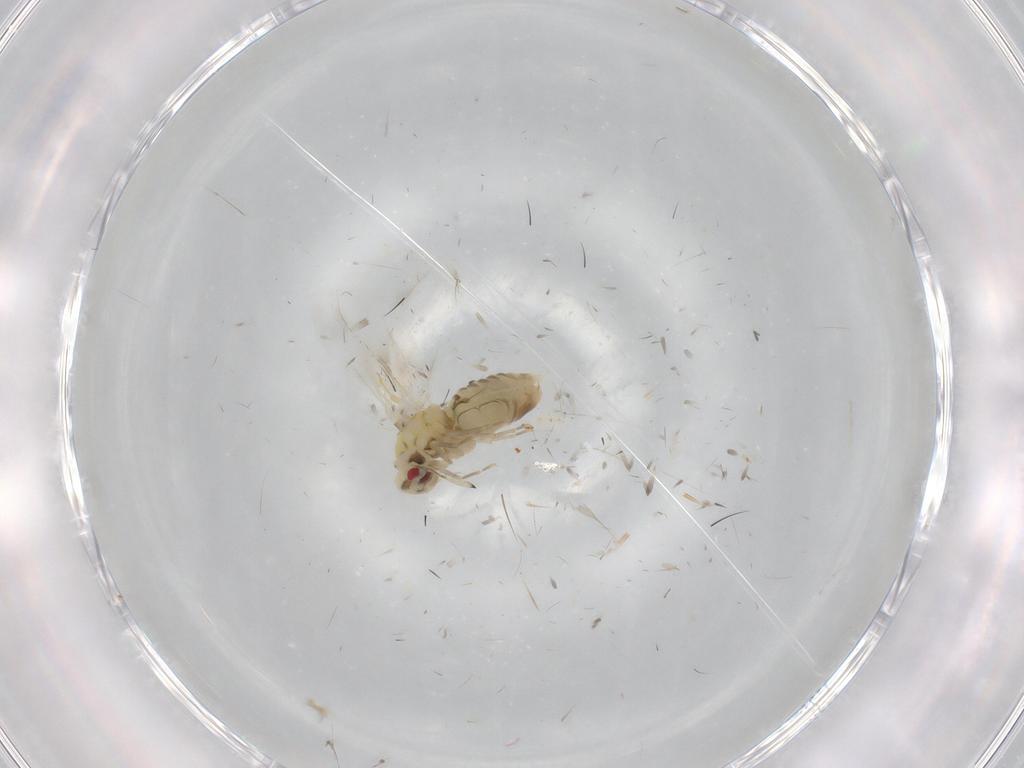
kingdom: Animalia
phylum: Arthropoda
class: Insecta
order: Hemiptera
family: Aleyrodidae
